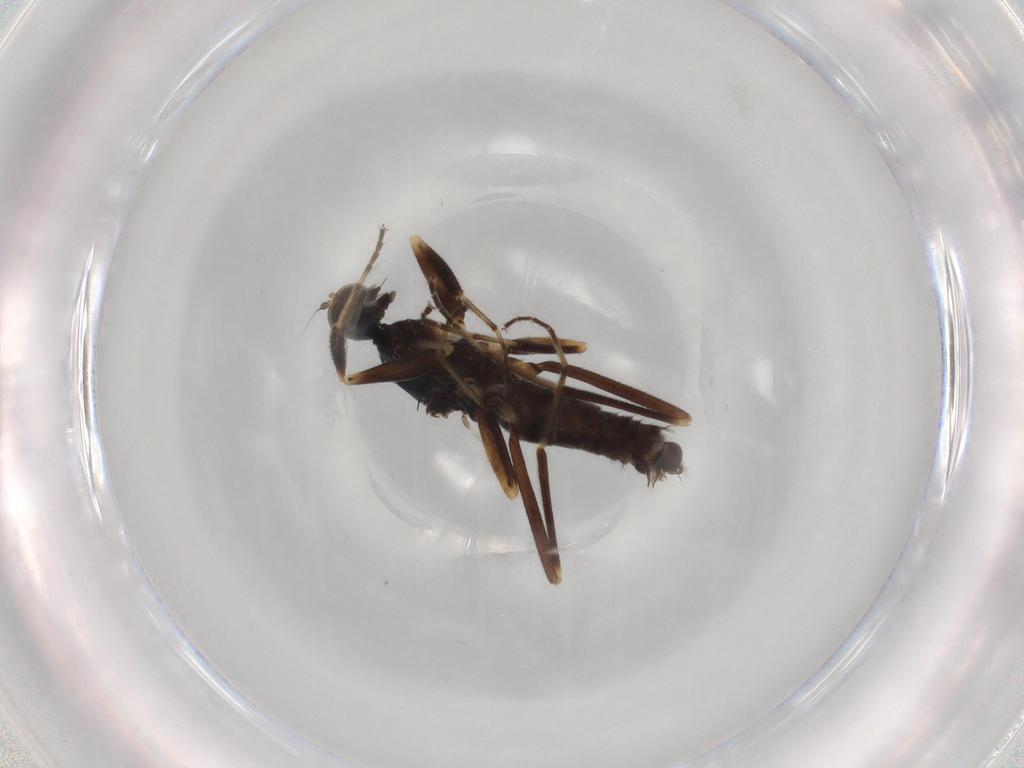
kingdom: Animalia
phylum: Arthropoda
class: Insecta
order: Diptera
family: Hybotidae
